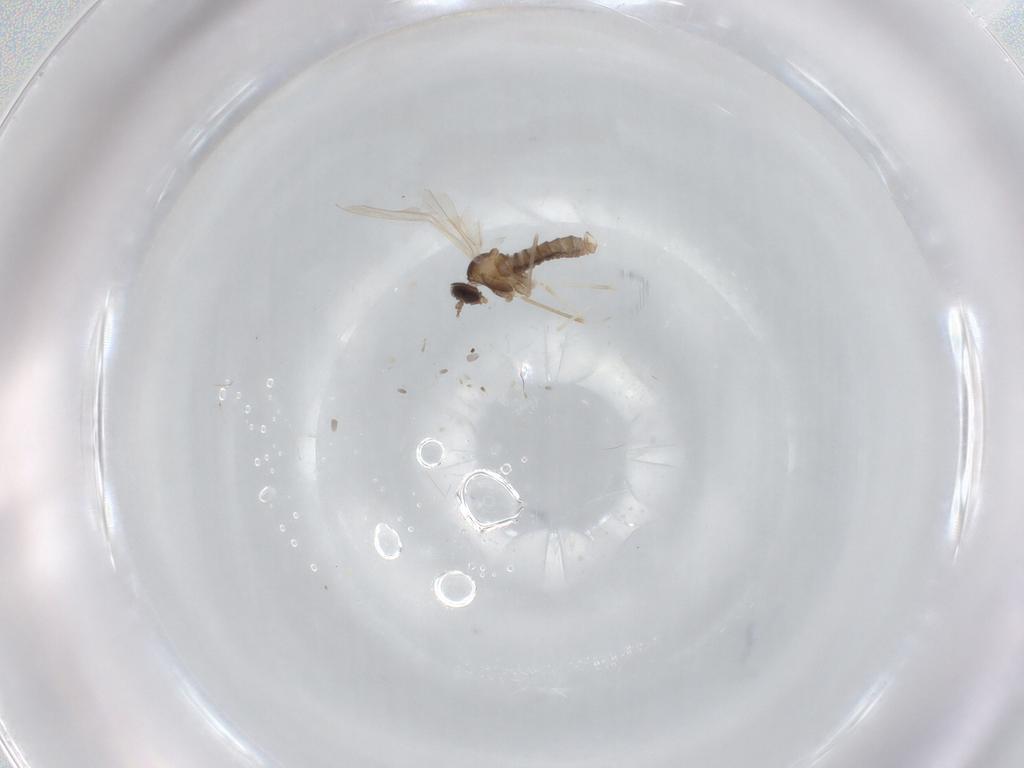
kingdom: Animalia
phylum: Arthropoda
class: Insecta
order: Diptera
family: Cecidomyiidae
